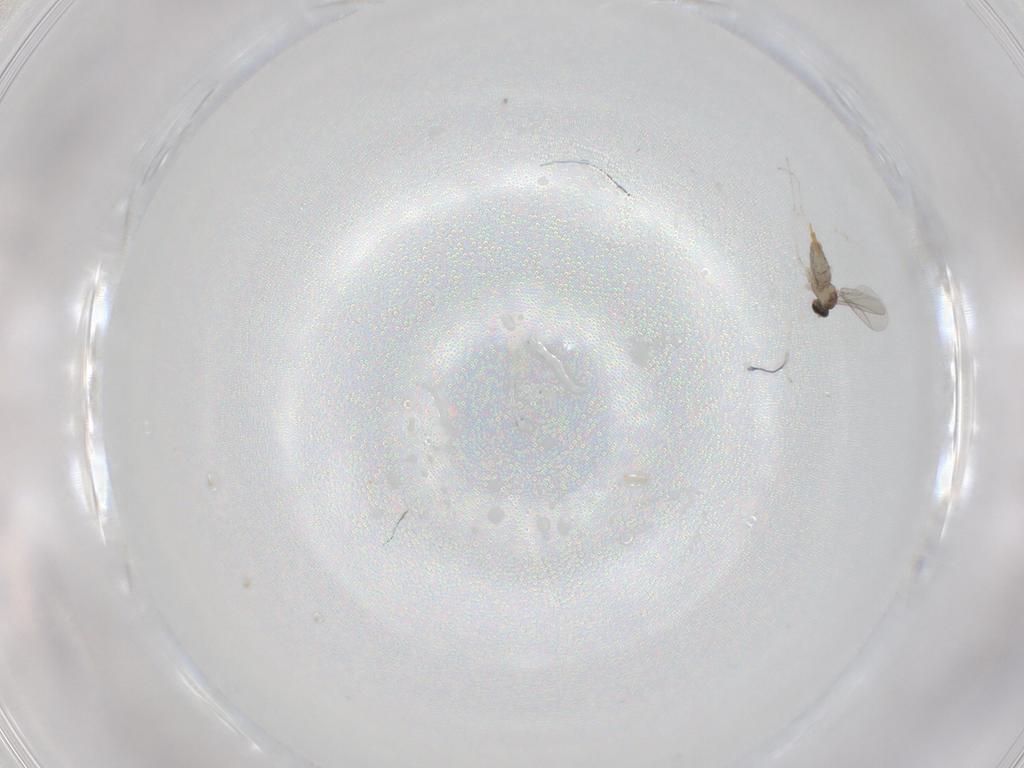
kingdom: Animalia
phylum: Arthropoda
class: Insecta
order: Diptera
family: Cecidomyiidae
